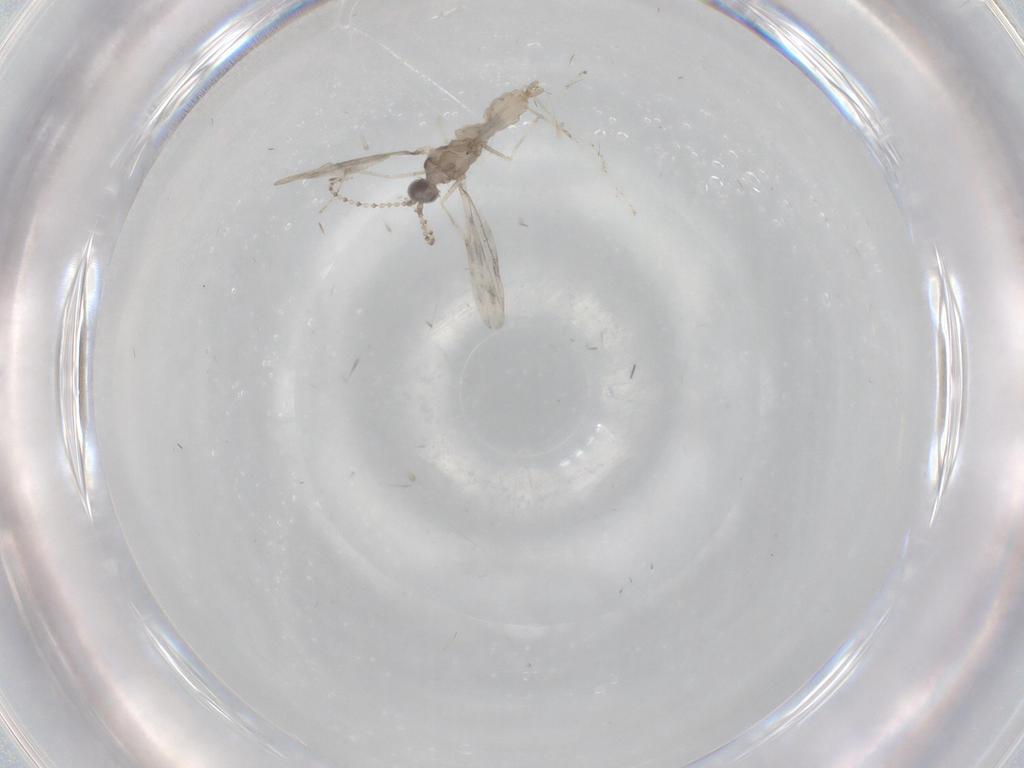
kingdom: Animalia
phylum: Arthropoda
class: Insecta
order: Diptera
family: Cecidomyiidae
